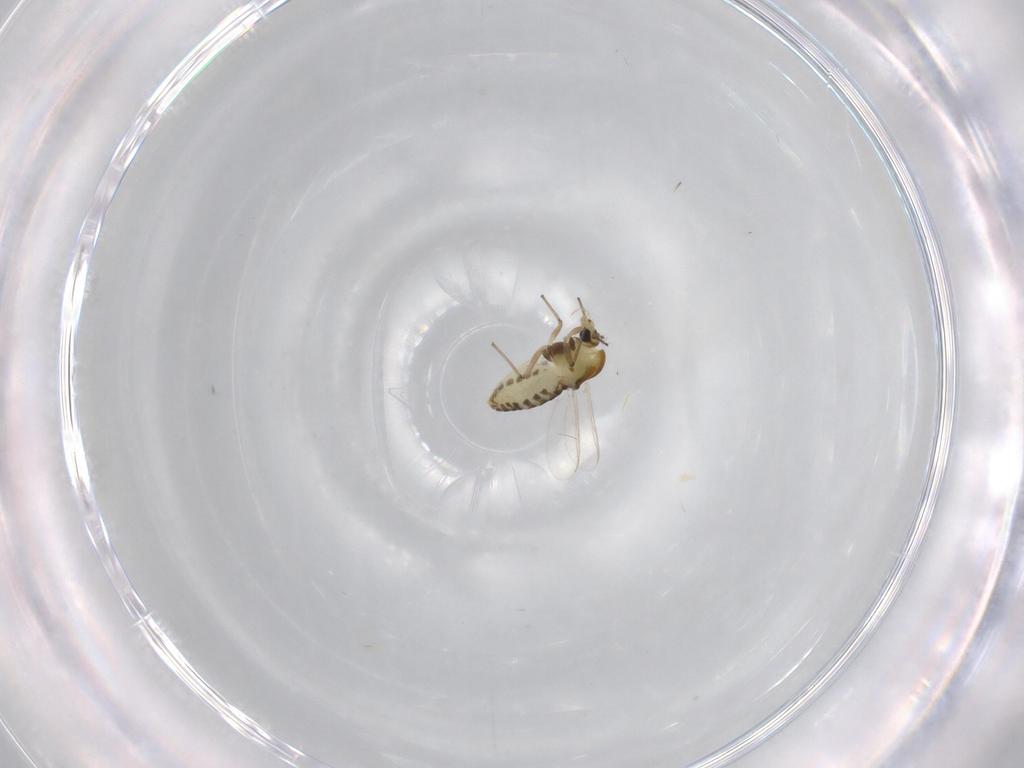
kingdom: Animalia
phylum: Arthropoda
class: Insecta
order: Diptera
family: Chironomidae
